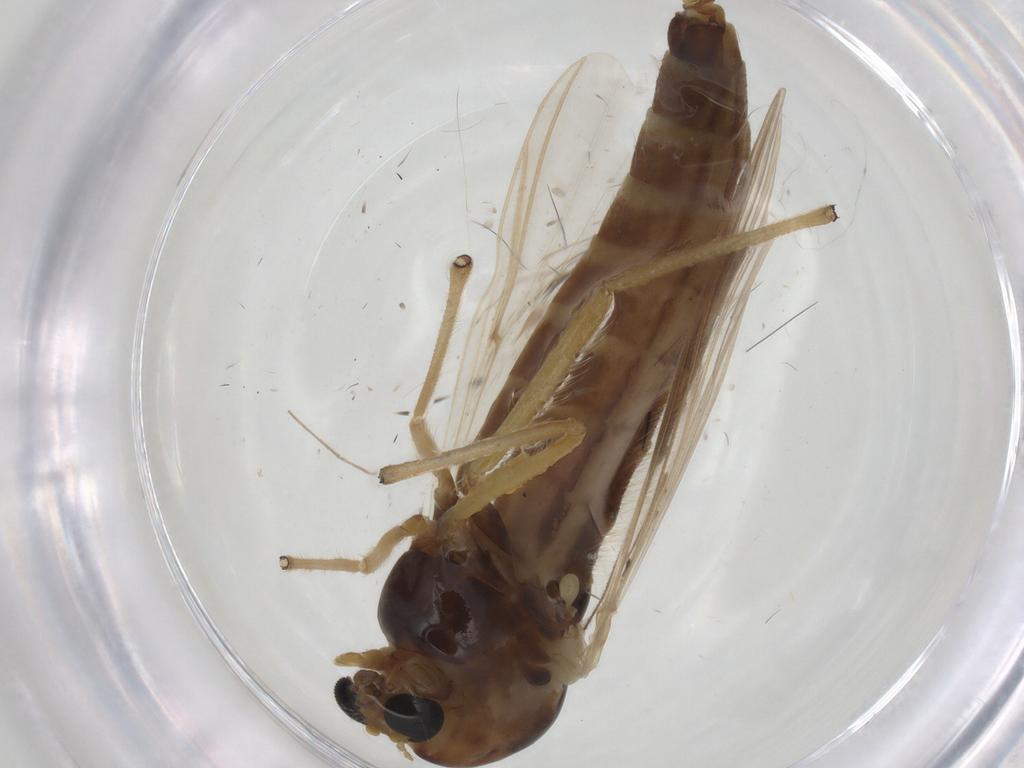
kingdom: Animalia
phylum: Arthropoda
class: Insecta
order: Diptera
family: Chironomidae
